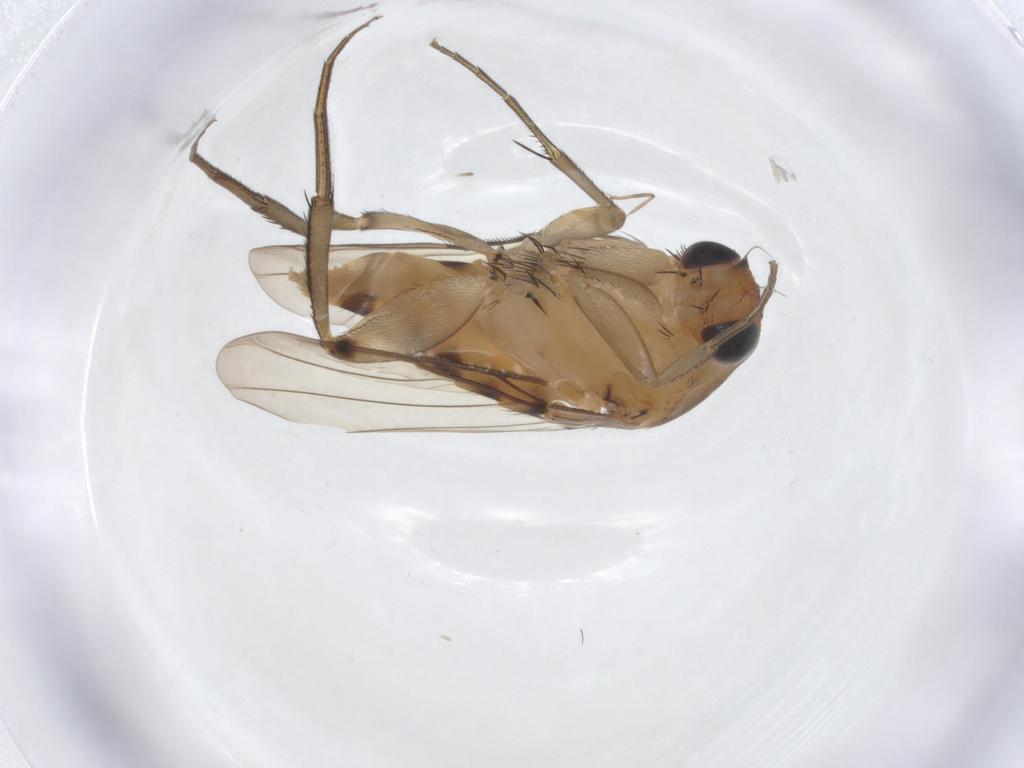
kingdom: Animalia
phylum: Arthropoda
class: Insecta
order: Diptera
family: Phoridae
